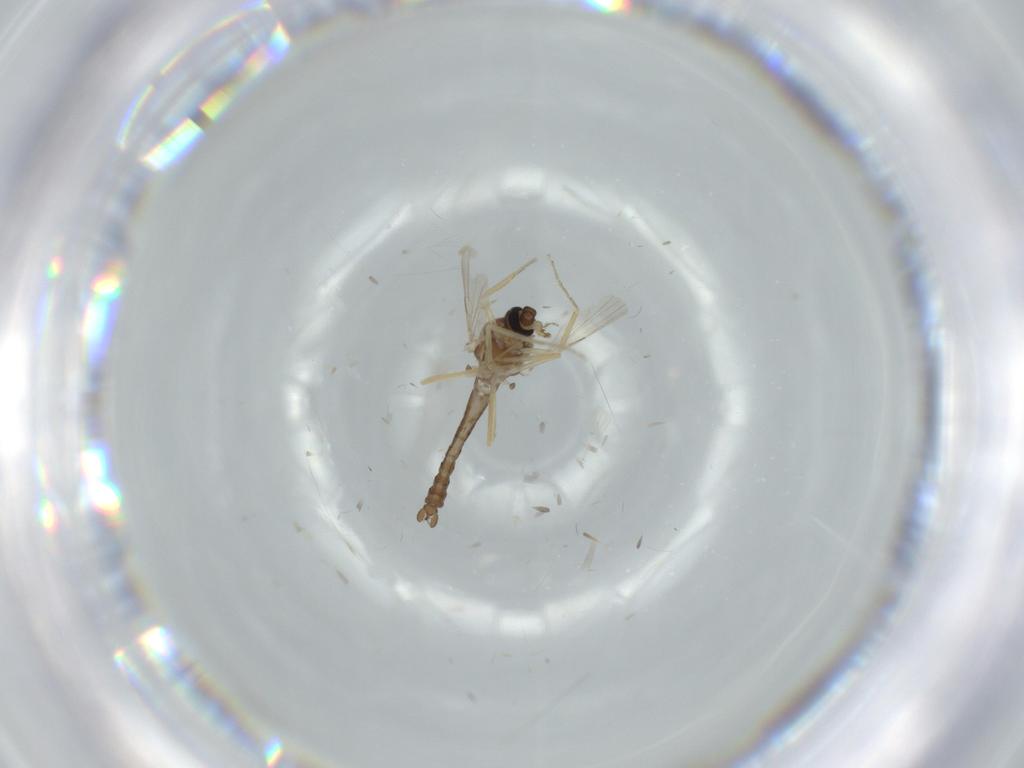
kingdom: Animalia
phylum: Arthropoda
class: Insecta
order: Diptera
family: Ceratopogonidae
